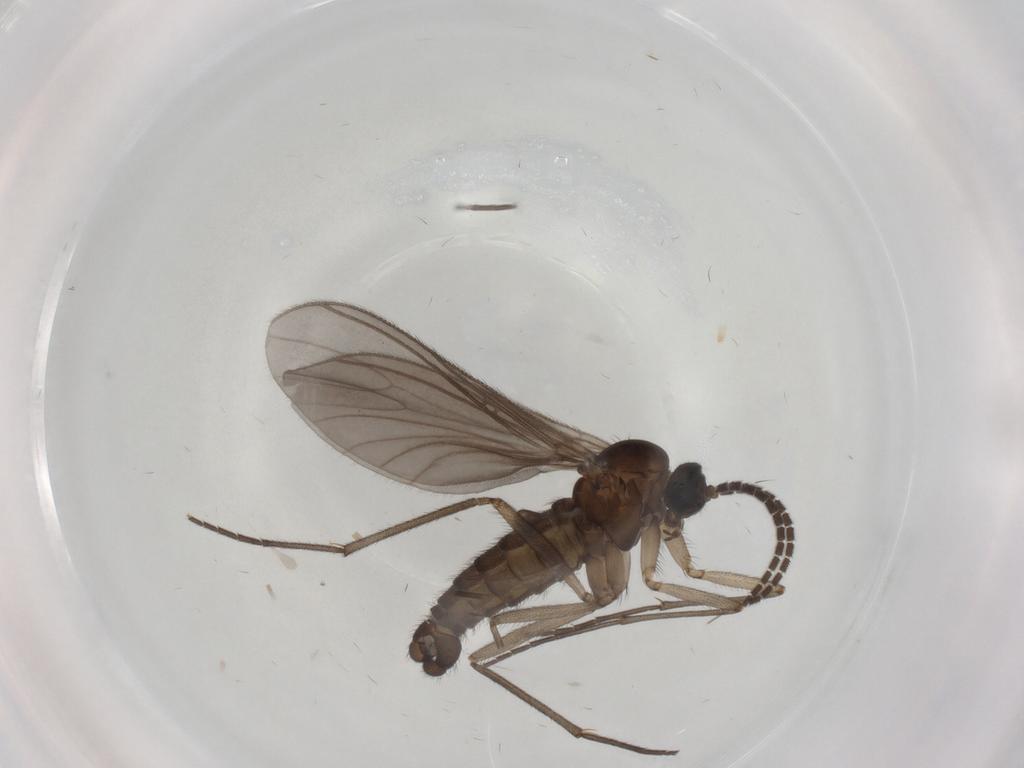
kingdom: Animalia
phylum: Arthropoda
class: Insecta
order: Diptera
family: Sciaridae
